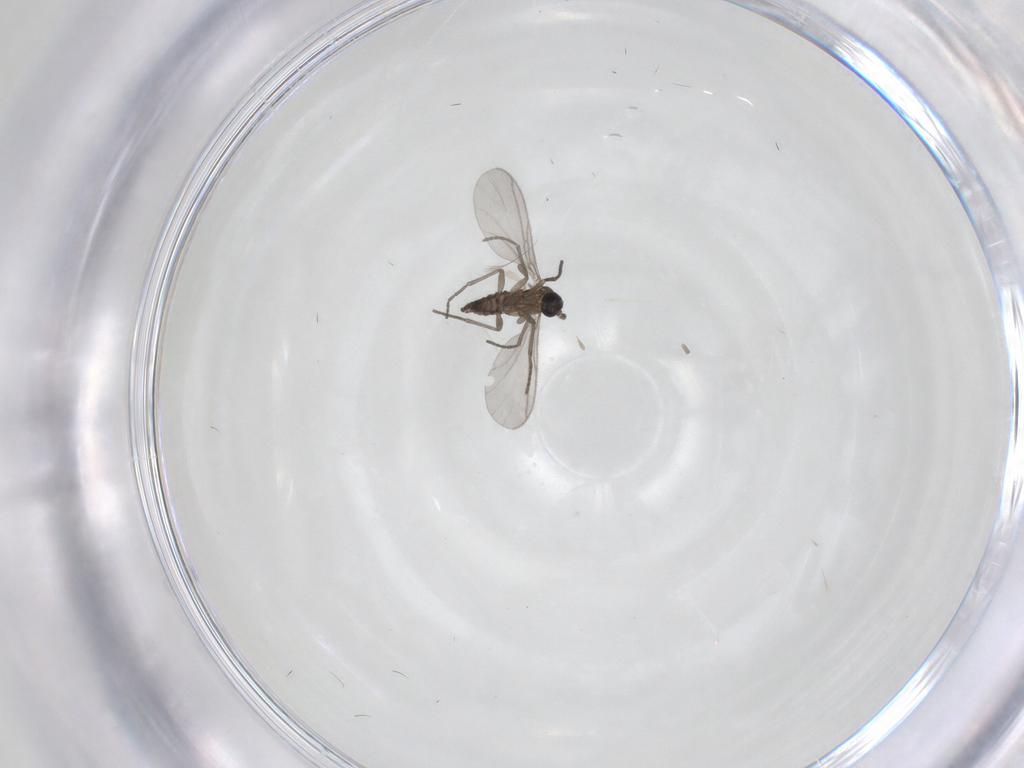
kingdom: Animalia
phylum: Arthropoda
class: Insecta
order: Diptera
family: Sciaridae
